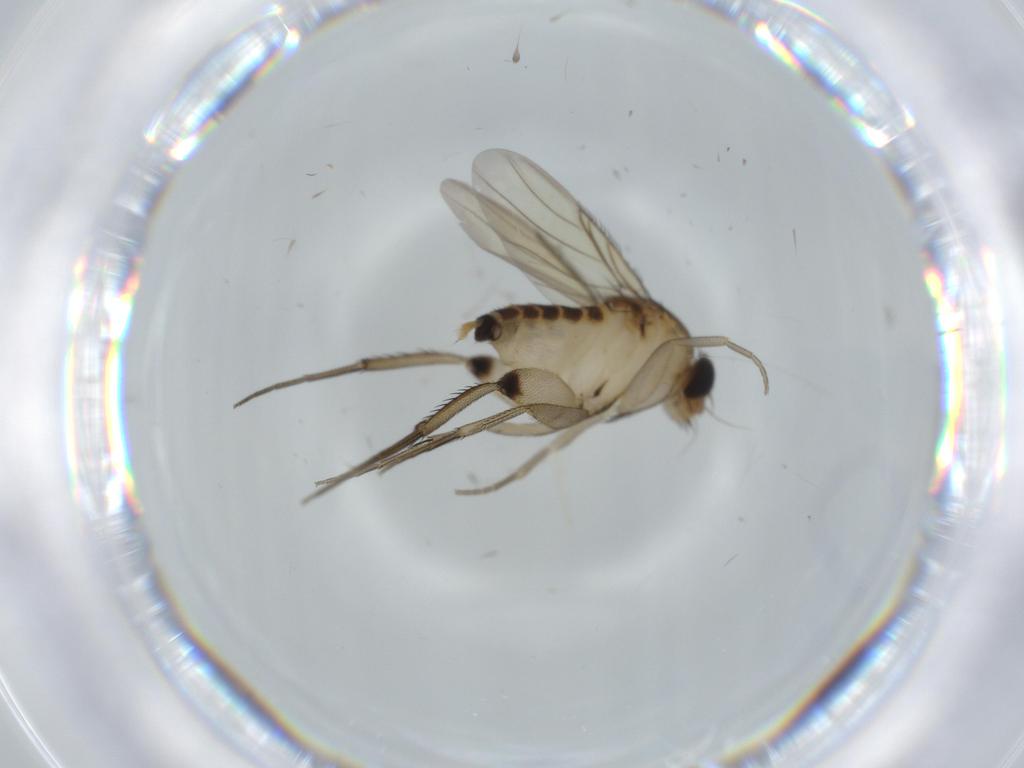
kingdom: Animalia
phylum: Arthropoda
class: Insecta
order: Diptera
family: Phoridae
